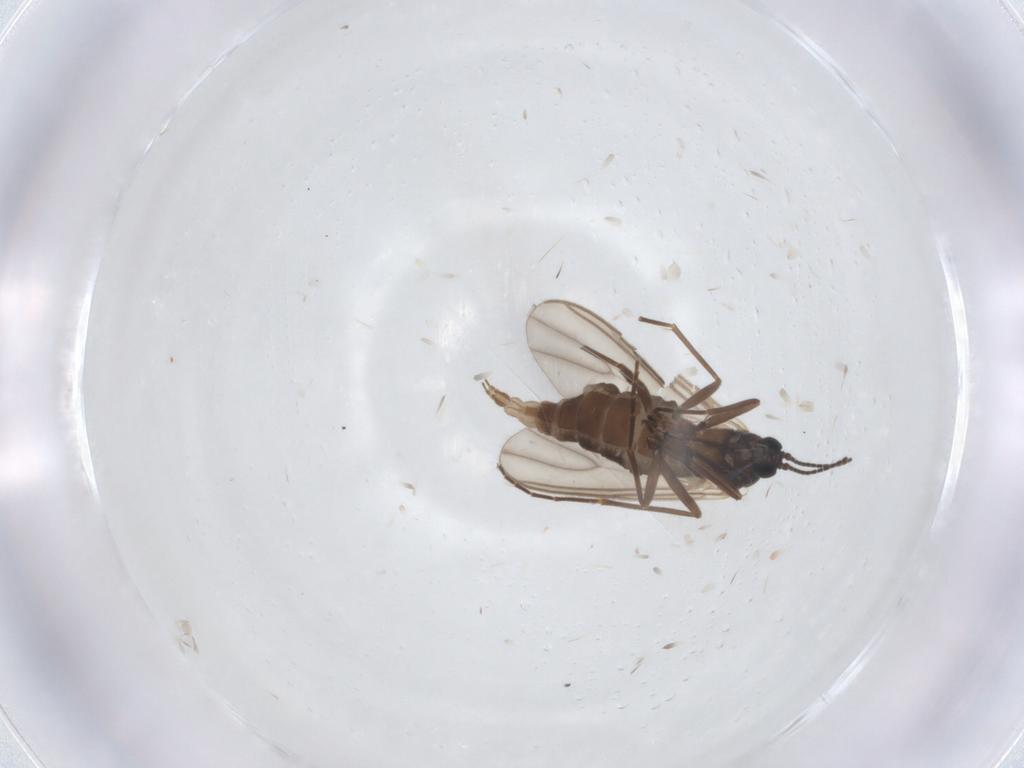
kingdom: Animalia
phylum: Arthropoda
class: Insecta
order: Diptera
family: Sciaridae
